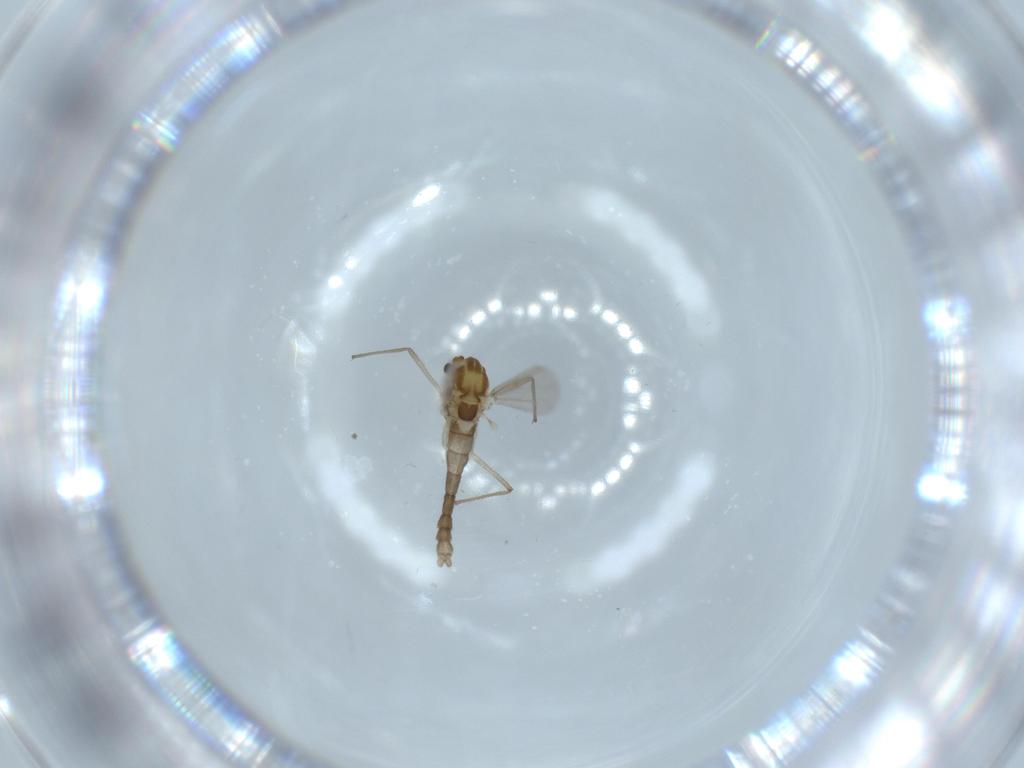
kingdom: Animalia
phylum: Arthropoda
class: Insecta
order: Diptera
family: Chironomidae
